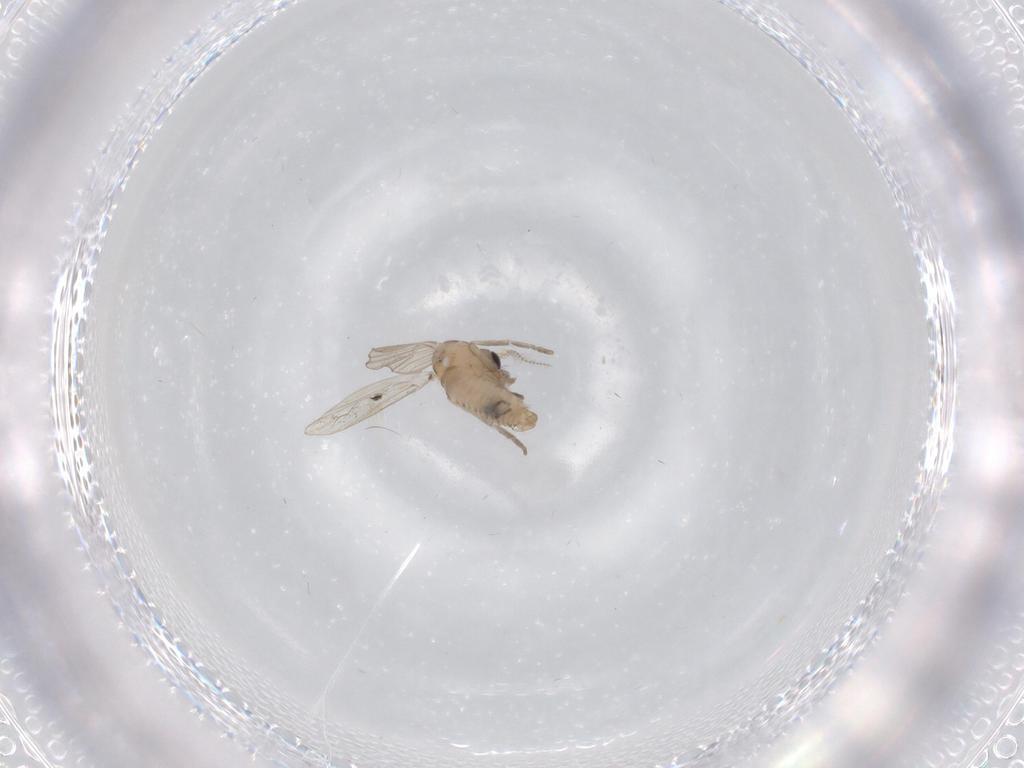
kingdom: Animalia
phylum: Arthropoda
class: Insecta
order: Diptera
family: Psychodidae
